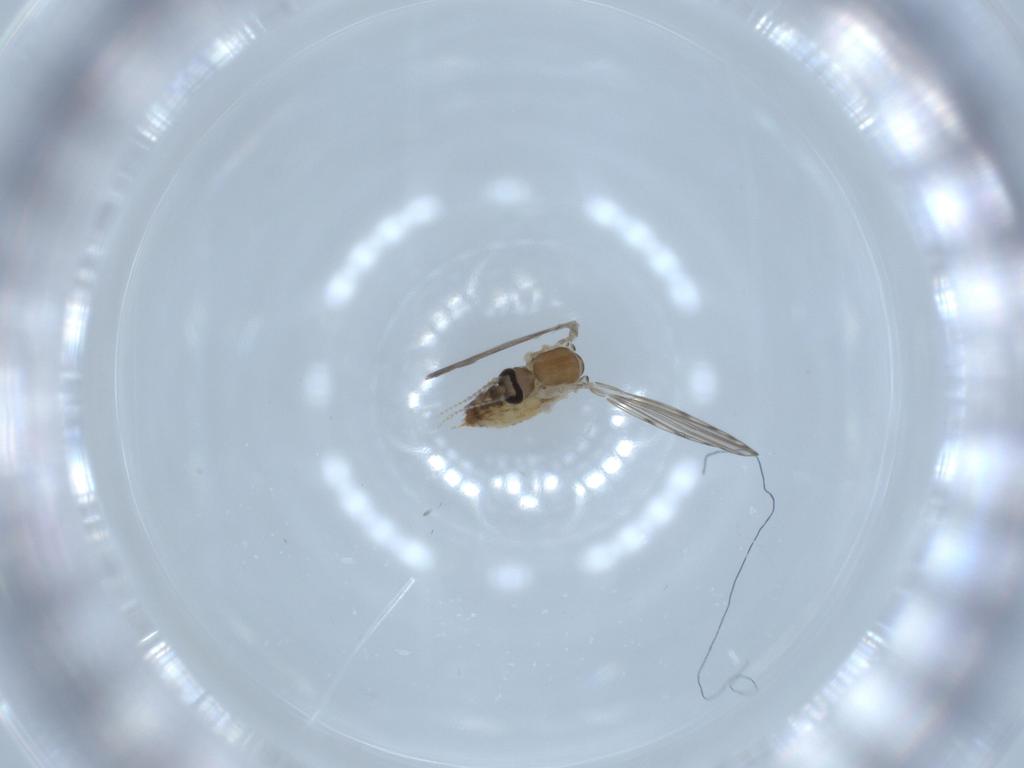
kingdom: Animalia
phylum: Arthropoda
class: Insecta
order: Diptera
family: Psychodidae
